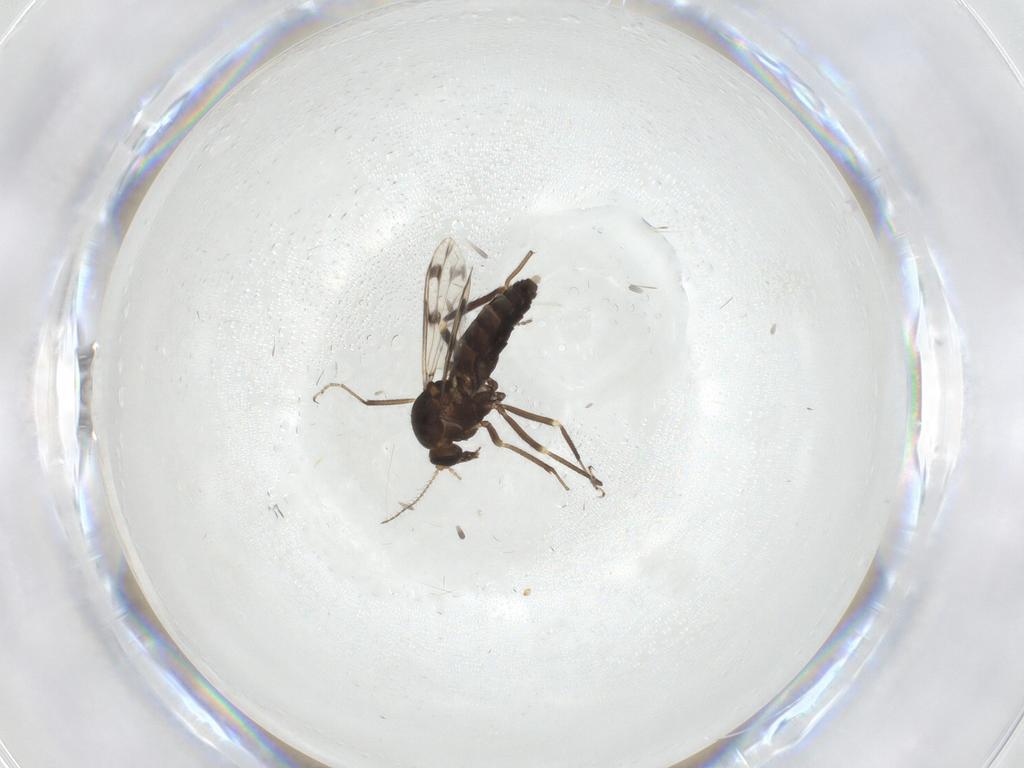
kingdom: Animalia
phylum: Arthropoda
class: Insecta
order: Diptera
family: Ceratopogonidae
